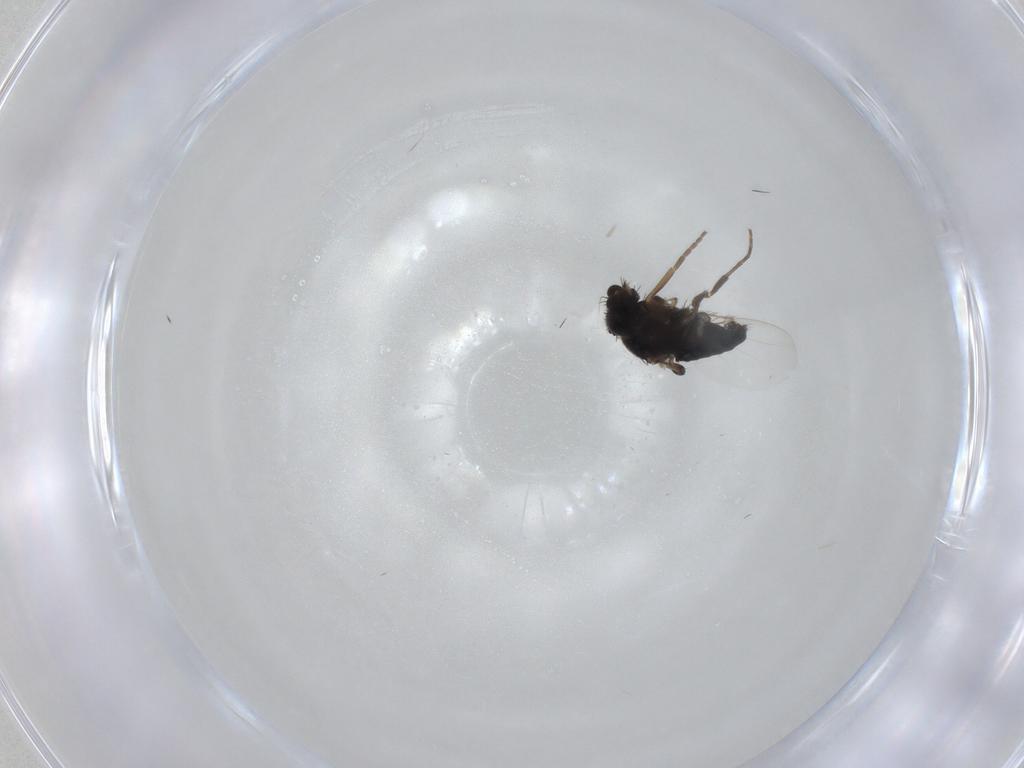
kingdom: Animalia
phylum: Arthropoda
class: Insecta
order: Diptera
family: Phoridae
